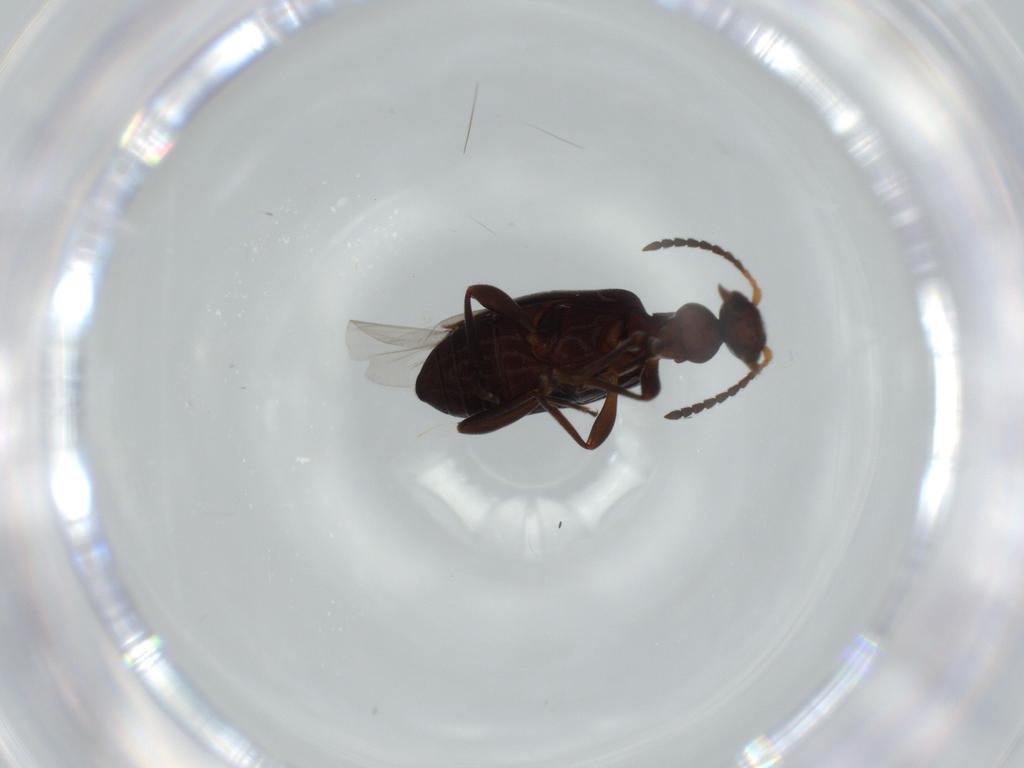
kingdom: Animalia
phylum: Arthropoda
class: Insecta
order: Coleoptera
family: Anthicidae
